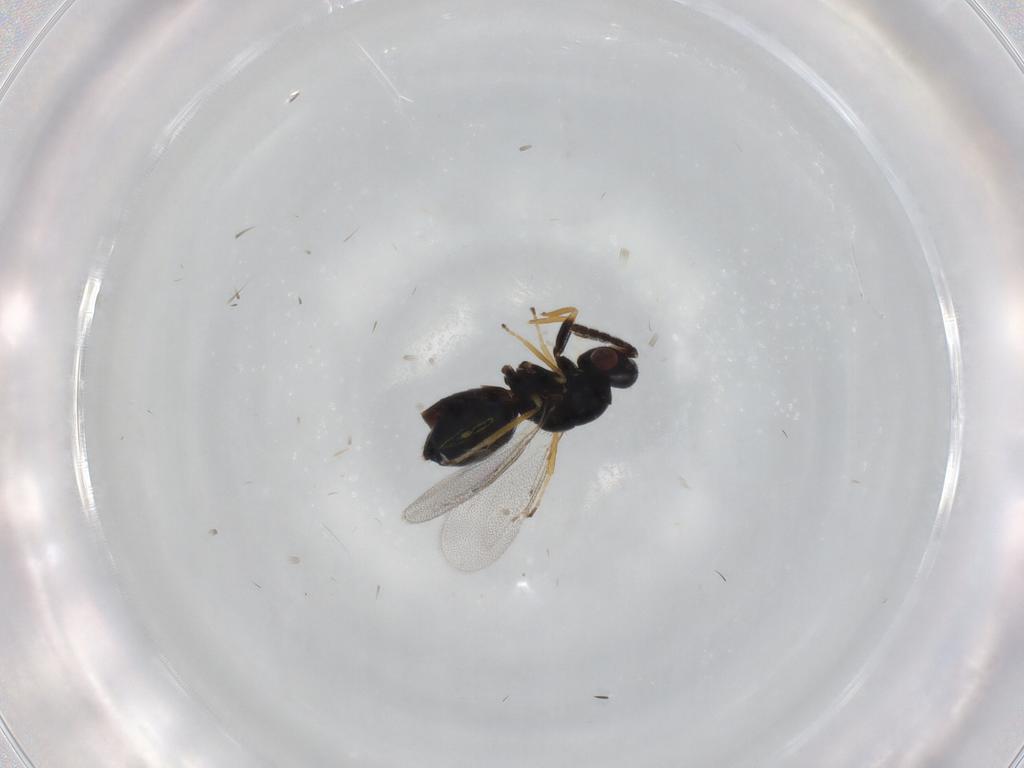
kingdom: Animalia
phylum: Arthropoda
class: Insecta
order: Hymenoptera
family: Eulophidae
